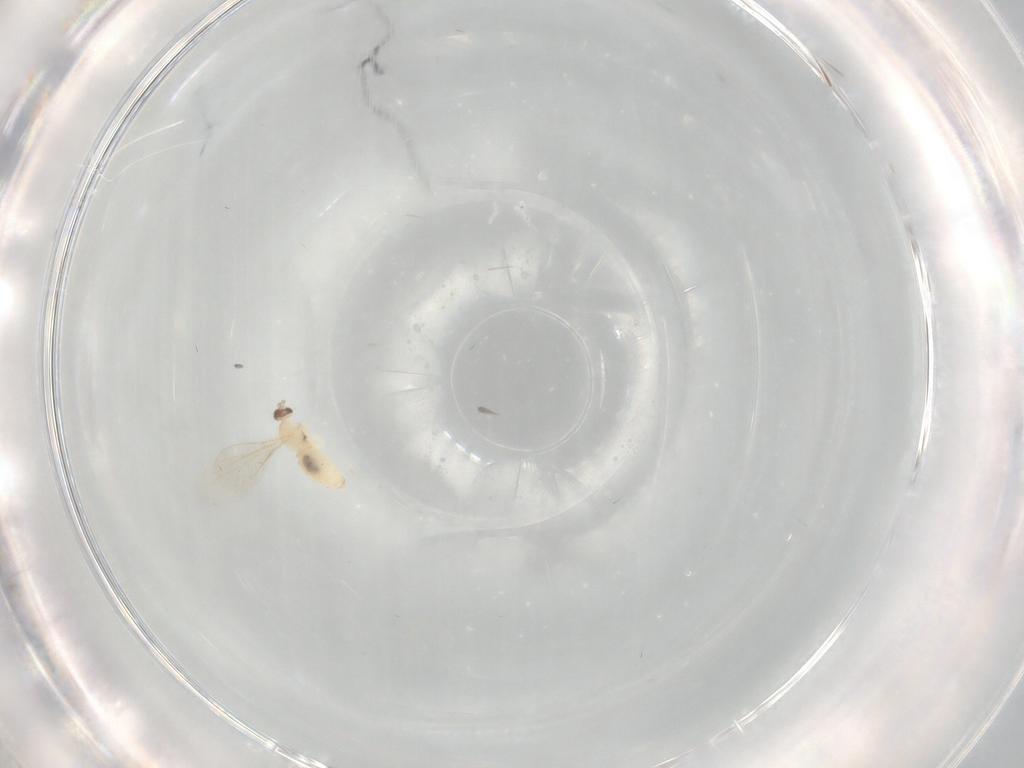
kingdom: Animalia
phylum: Arthropoda
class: Insecta
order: Diptera
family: Cecidomyiidae
